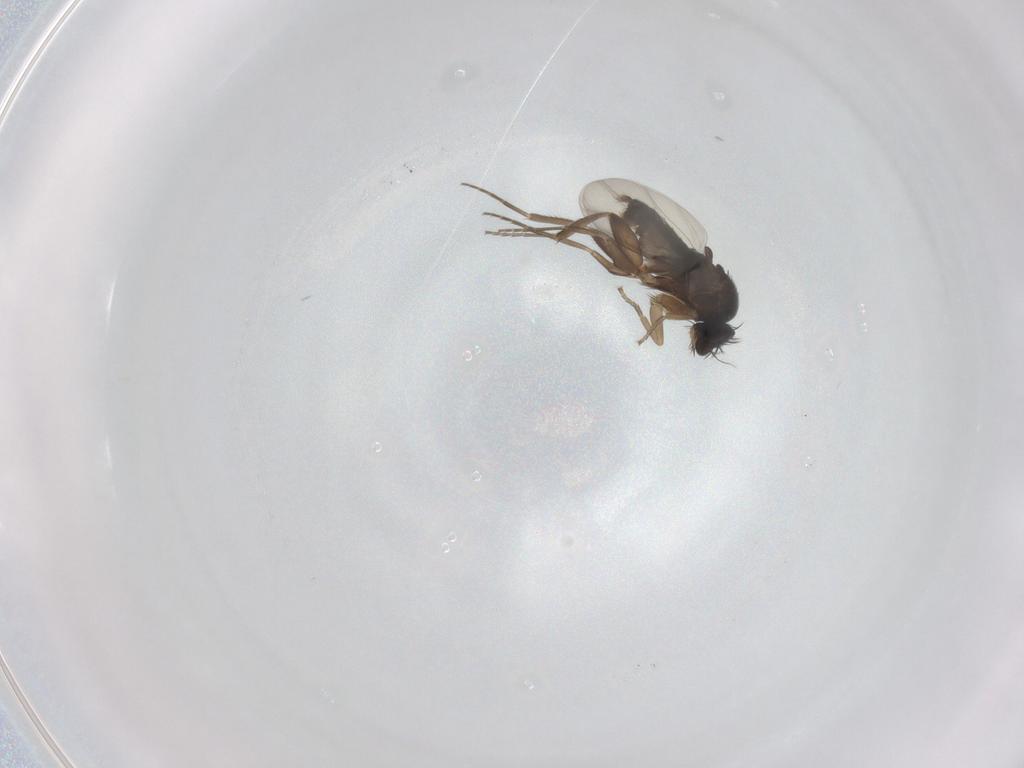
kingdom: Animalia
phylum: Arthropoda
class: Insecta
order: Diptera
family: Phoridae
